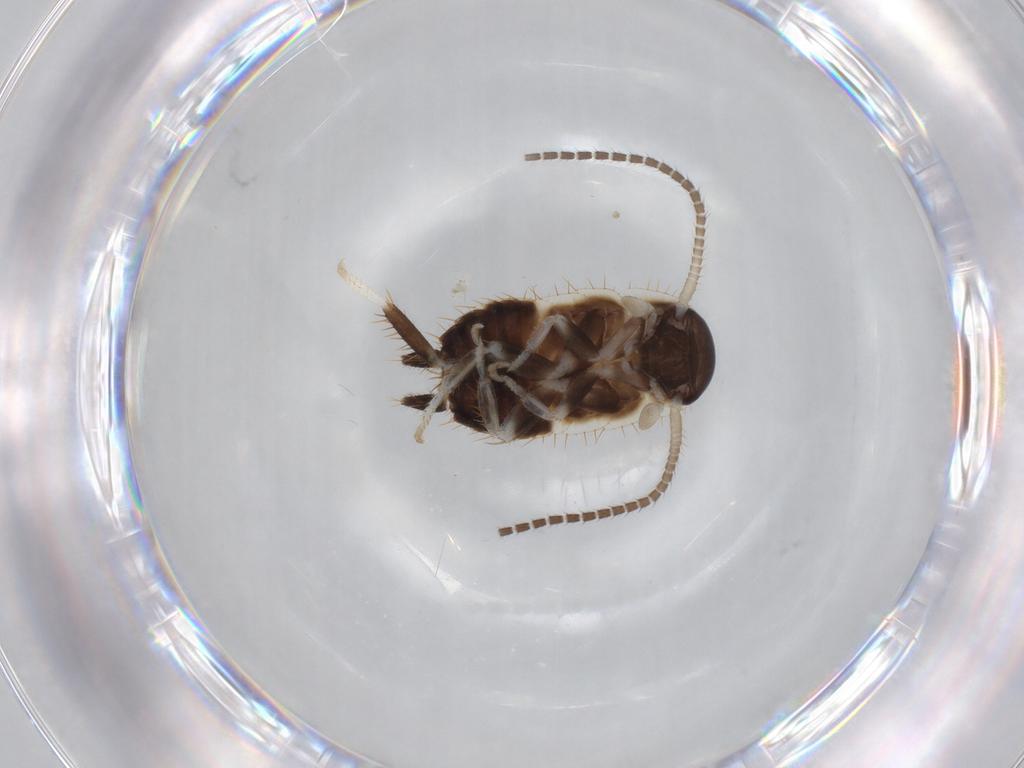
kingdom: Animalia
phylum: Arthropoda
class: Insecta
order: Blattodea
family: Ectobiidae
